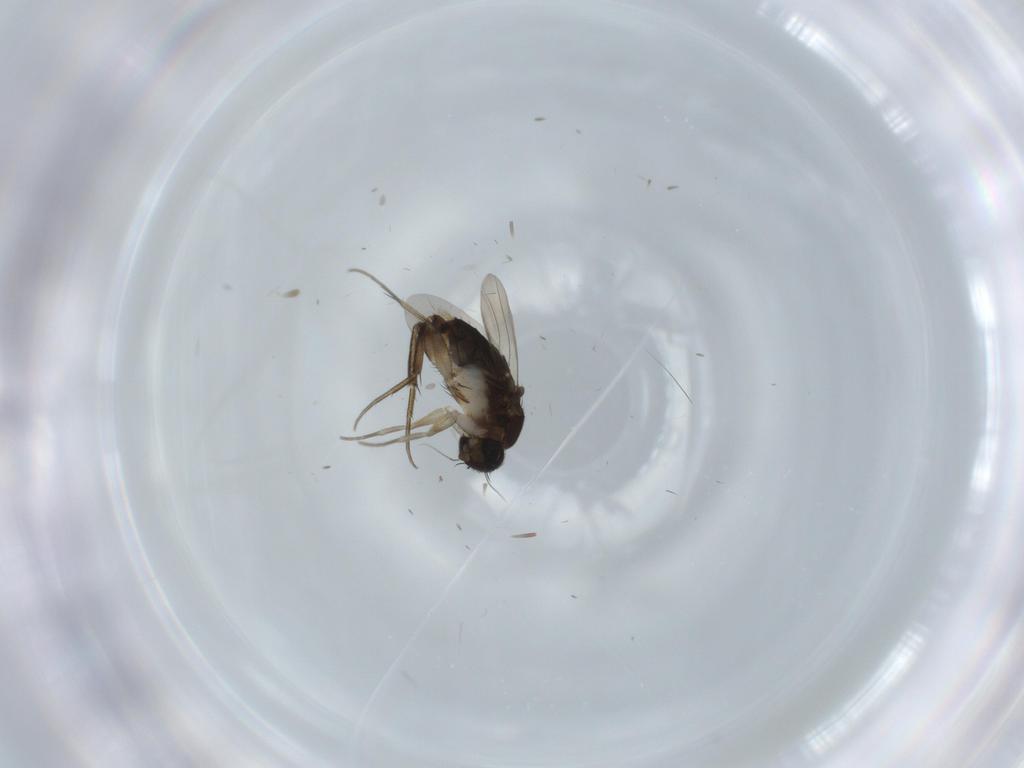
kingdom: Animalia
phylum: Arthropoda
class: Insecta
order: Diptera
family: Phoridae
